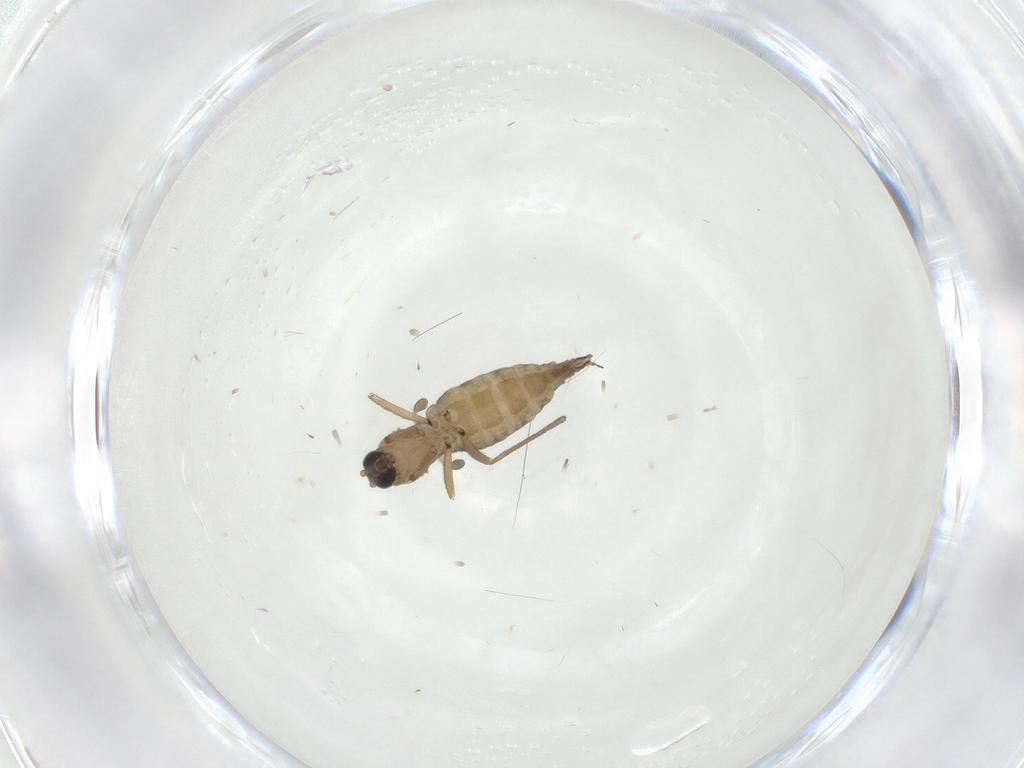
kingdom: Animalia
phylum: Arthropoda
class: Insecta
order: Diptera
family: Sciaridae
